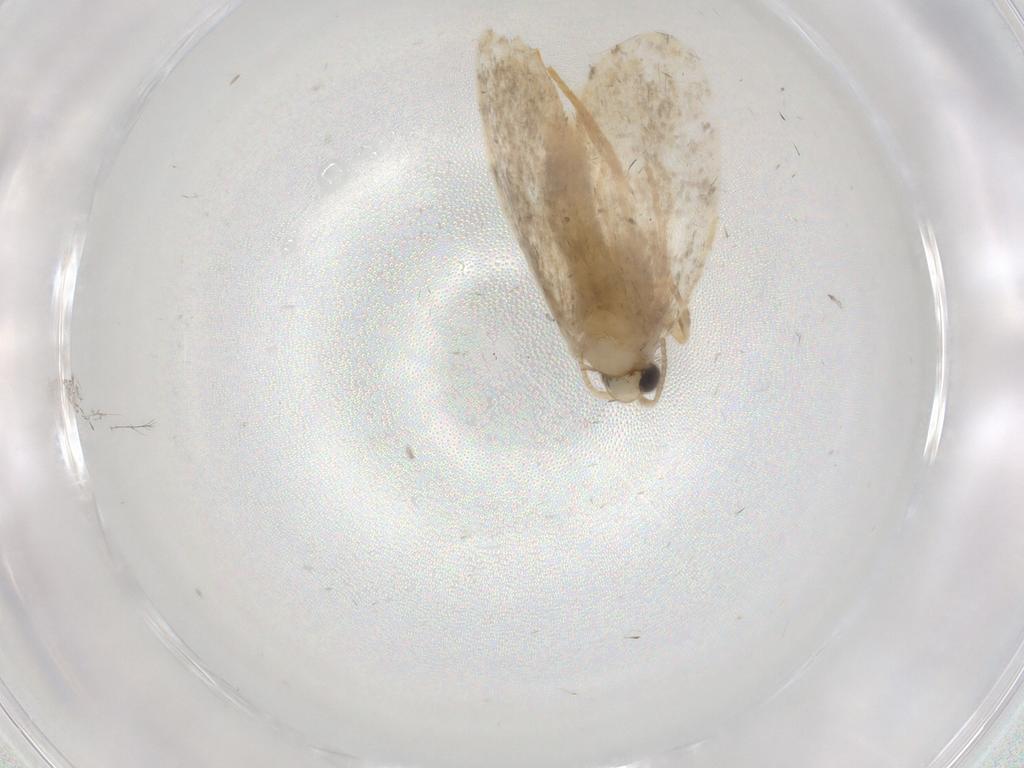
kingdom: Animalia
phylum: Arthropoda
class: Insecta
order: Lepidoptera
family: Psychidae
